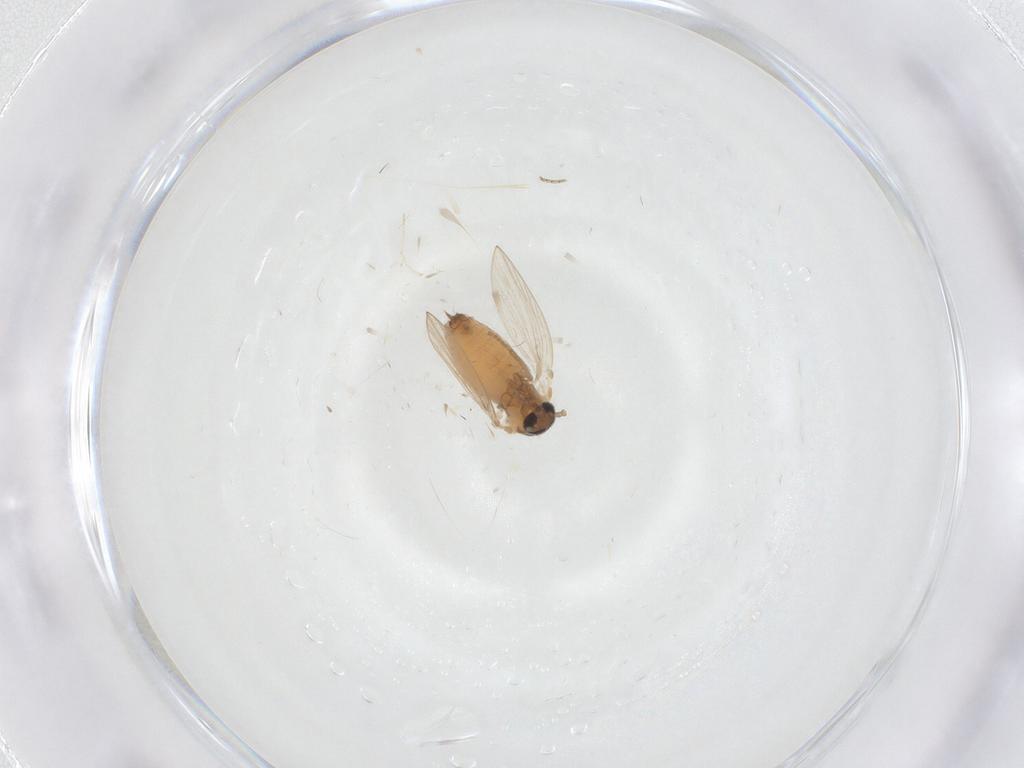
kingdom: Animalia
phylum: Arthropoda
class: Insecta
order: Diptera
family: Psychodidae
